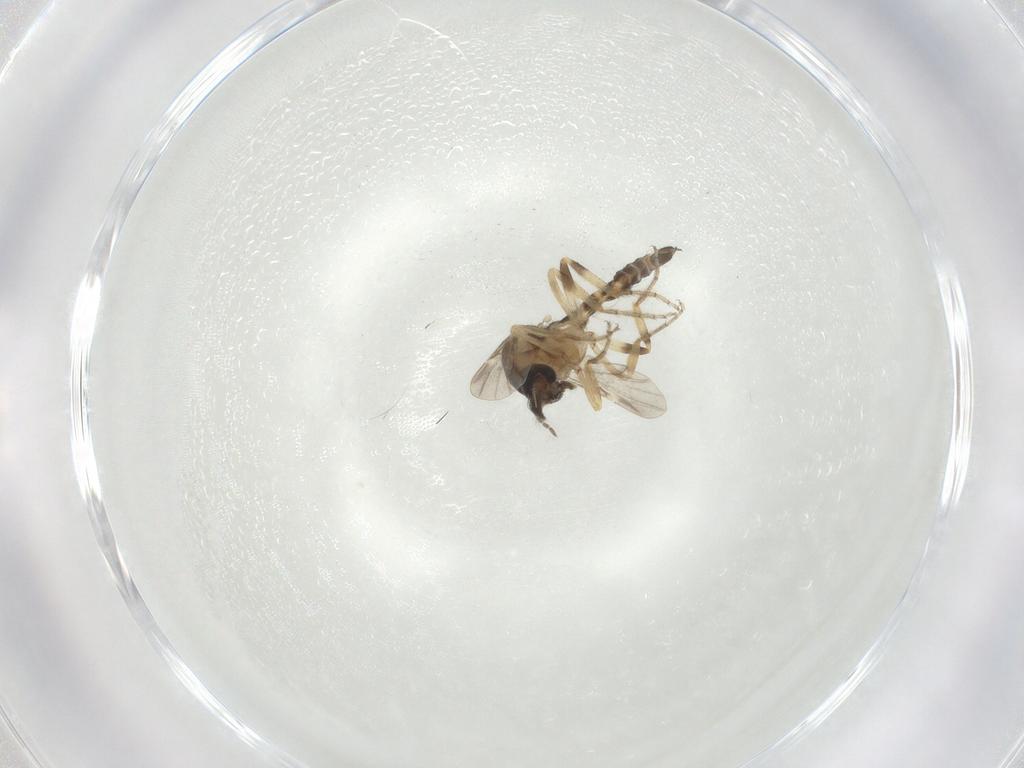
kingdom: Animalia
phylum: Arthropoda
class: Insecta
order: Diptera
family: Ceratopogonidae
